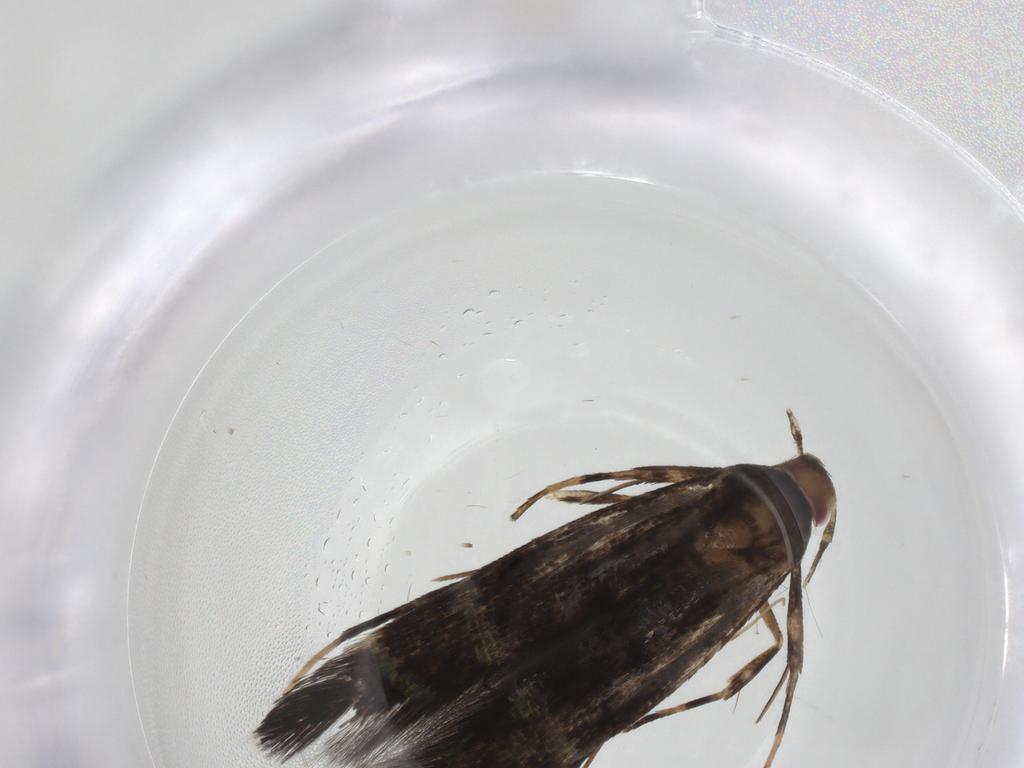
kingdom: Animalia
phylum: Arthropoda
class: Insecta
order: Lepidoptera
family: Cosmopterigidae
